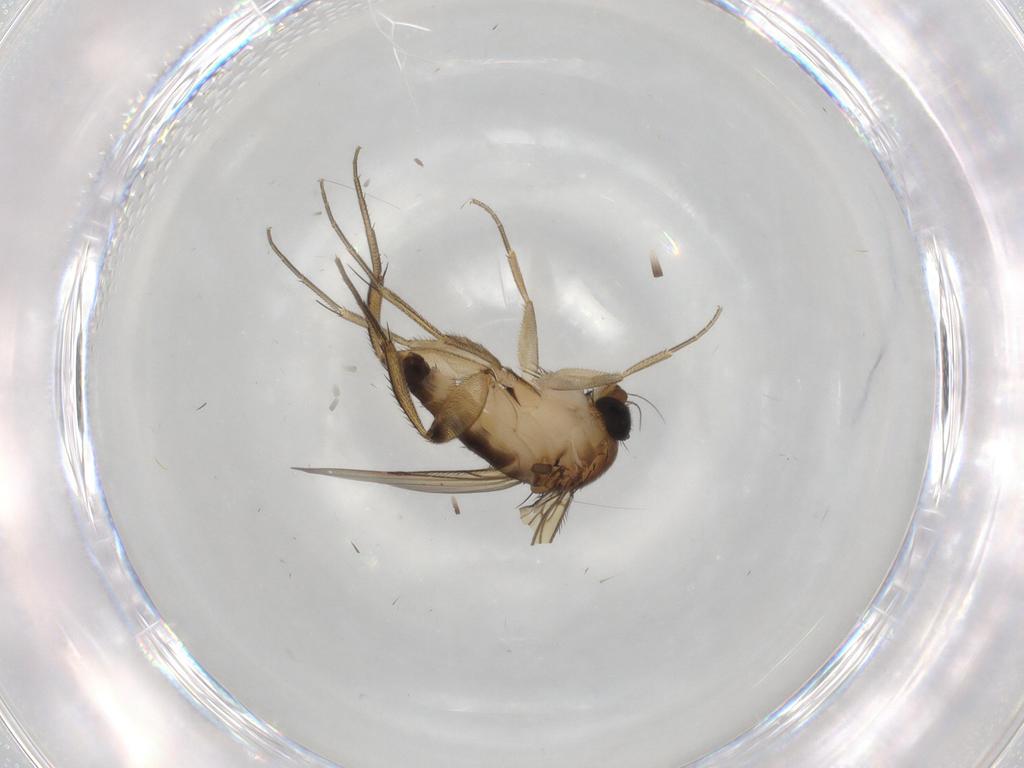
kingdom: Animalia
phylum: Arthropoda
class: Insecta
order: Diptera
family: Phoridae
